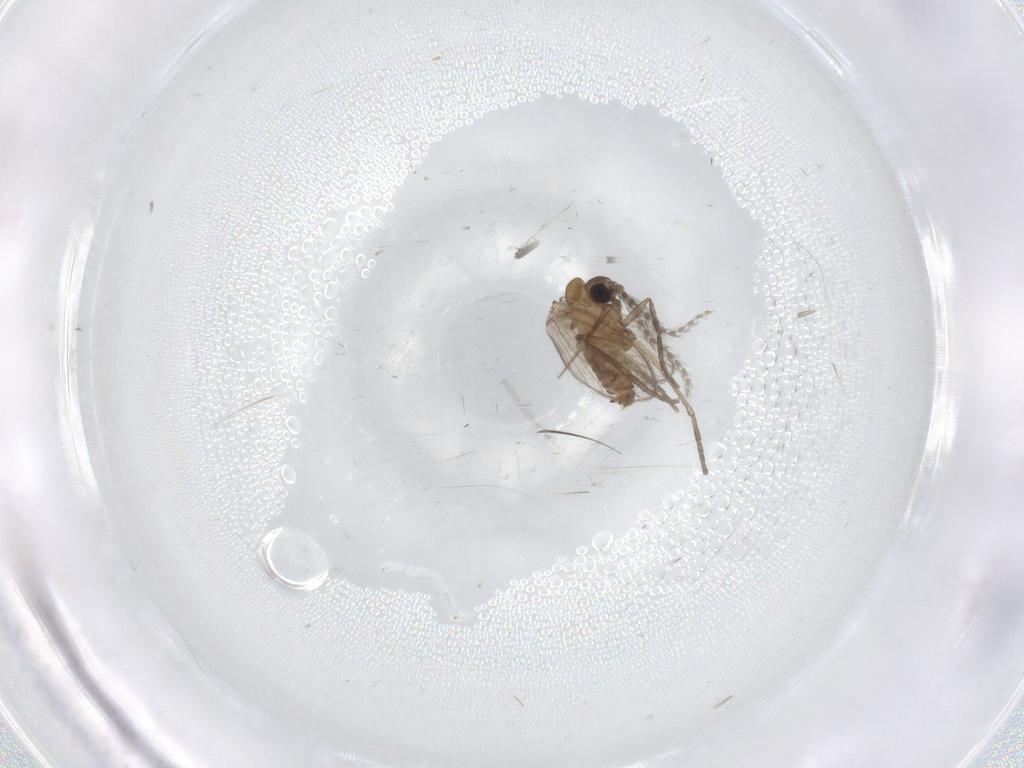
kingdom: Animalia
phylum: Arthropoda
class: Insecta
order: Diptera
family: Cecidomyiidae
